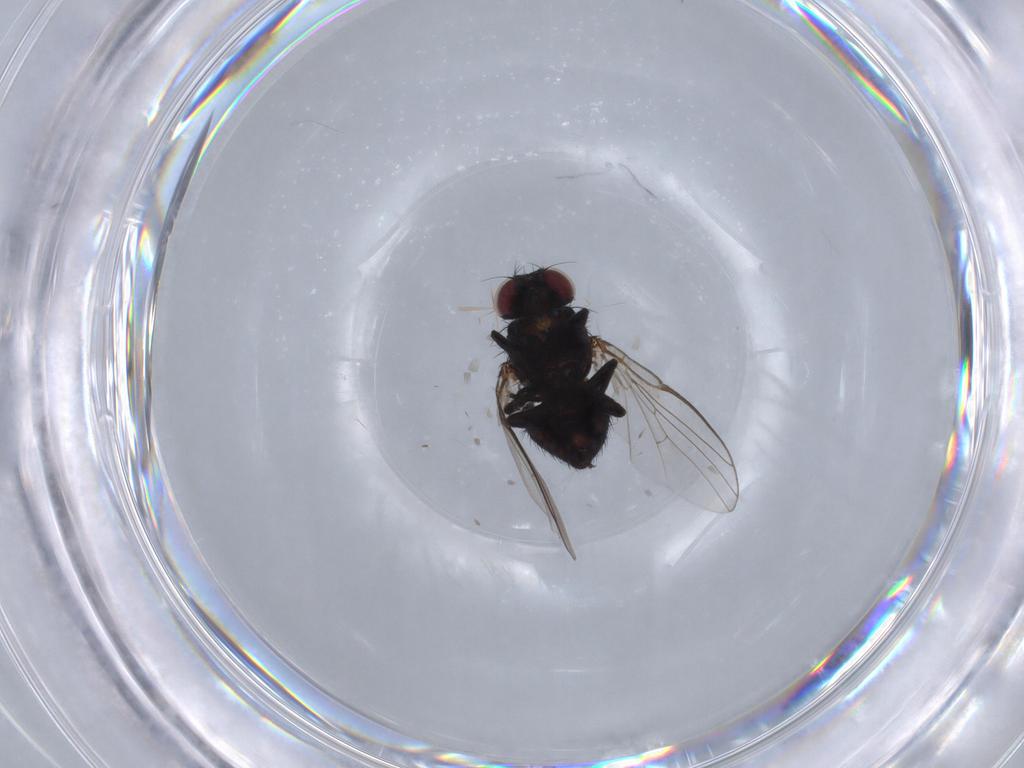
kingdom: Animalia
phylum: Arthropoda
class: Insecta
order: Diptera
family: Agromyzidae
